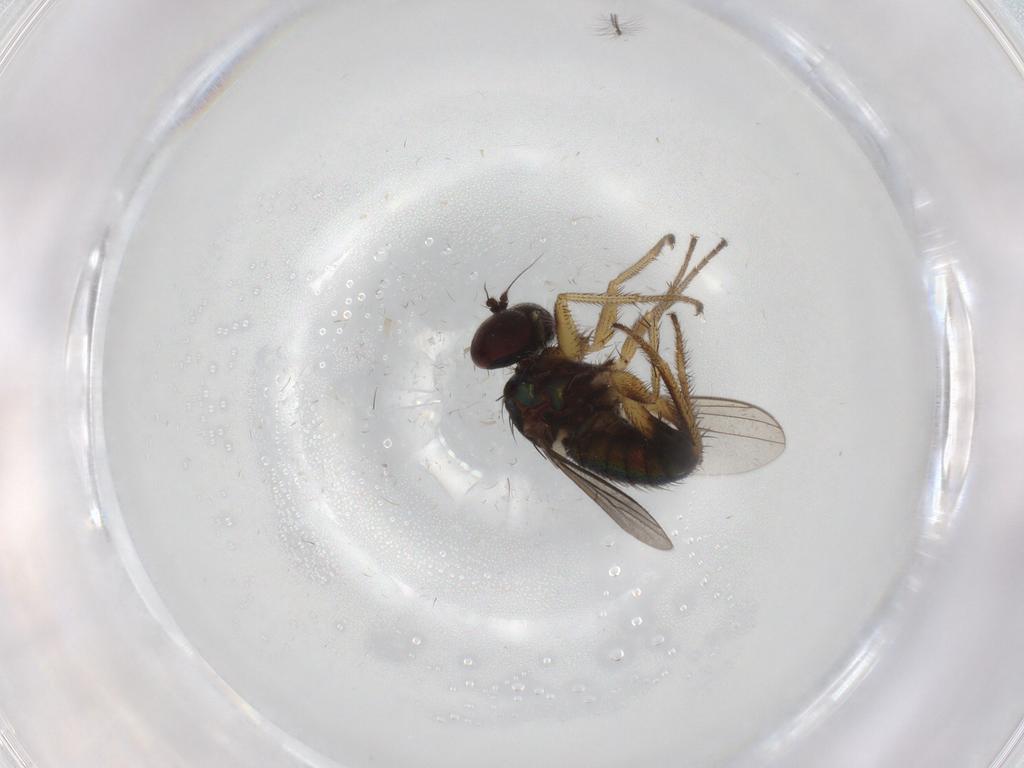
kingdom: Animalia
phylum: Arthropoda
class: Insecta
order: Diptera
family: Dolichopodidae
